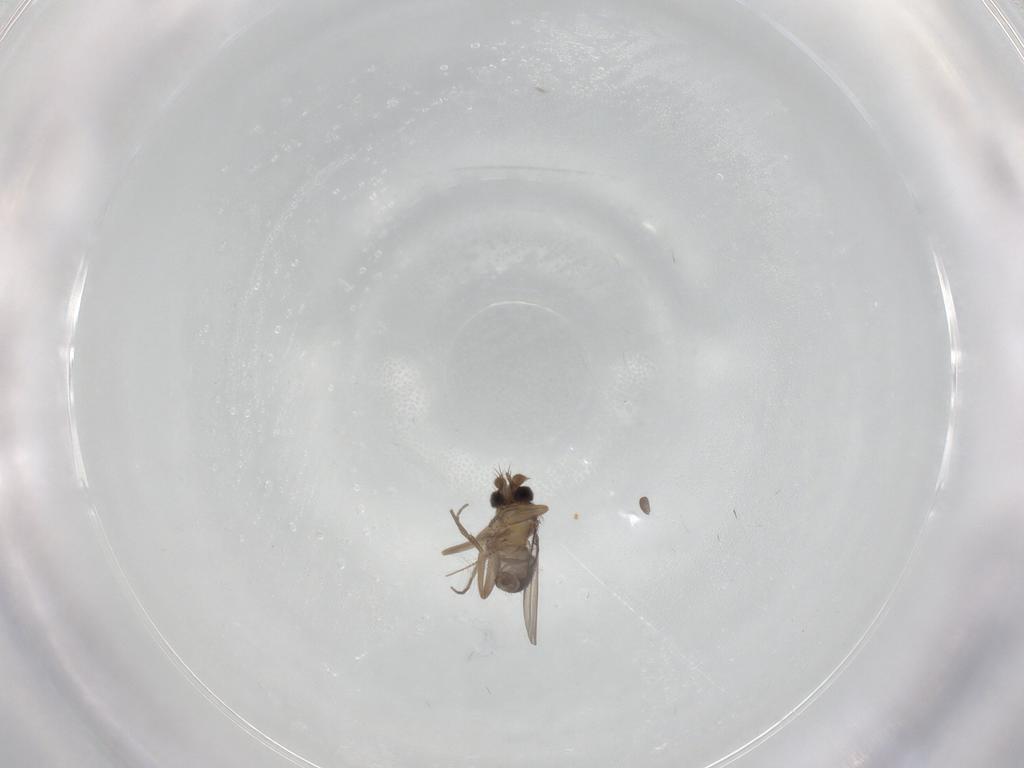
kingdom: Animalia
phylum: Arthropoda
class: Insecta
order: Diptera
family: Phoridae
